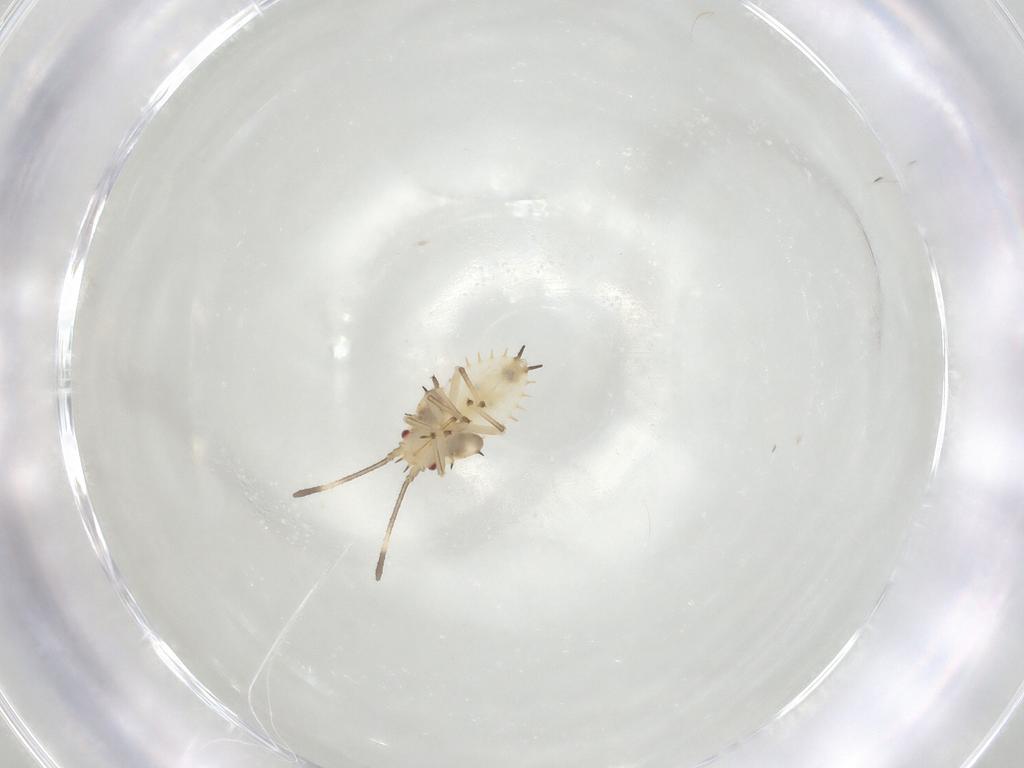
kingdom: Animalia
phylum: Arthropoda
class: Insecta
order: Hemiptera
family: Tingidae
